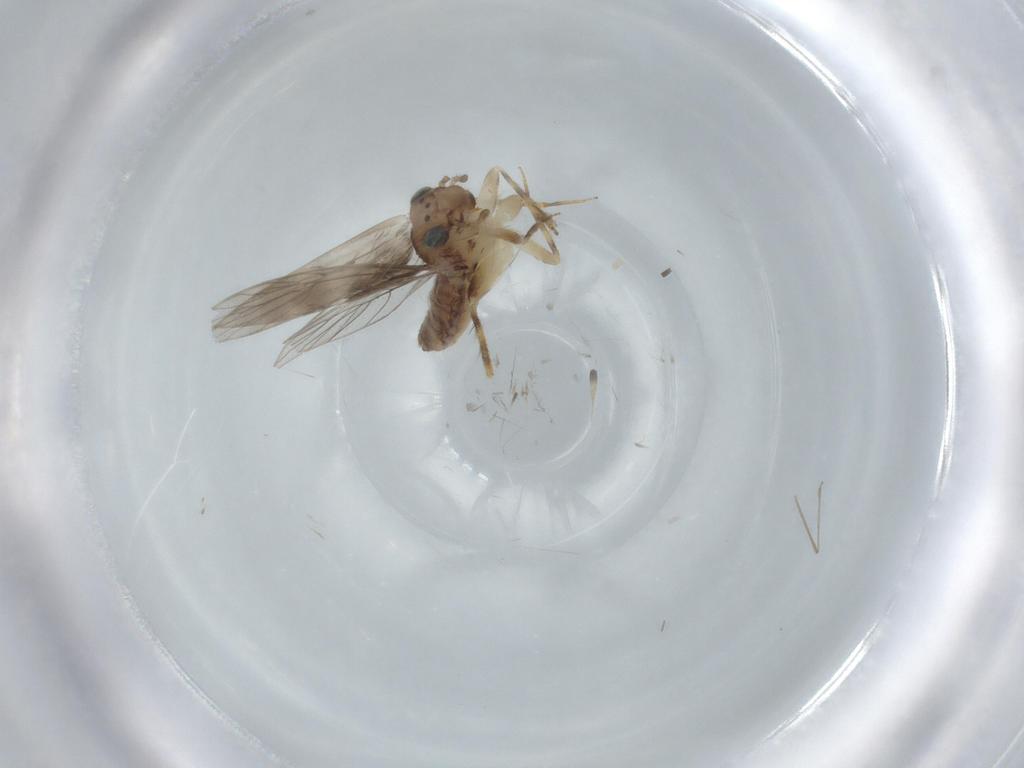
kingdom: Animalia
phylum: Arthropoda
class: Insecta
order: Psocodea
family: Lepidopsocidae
